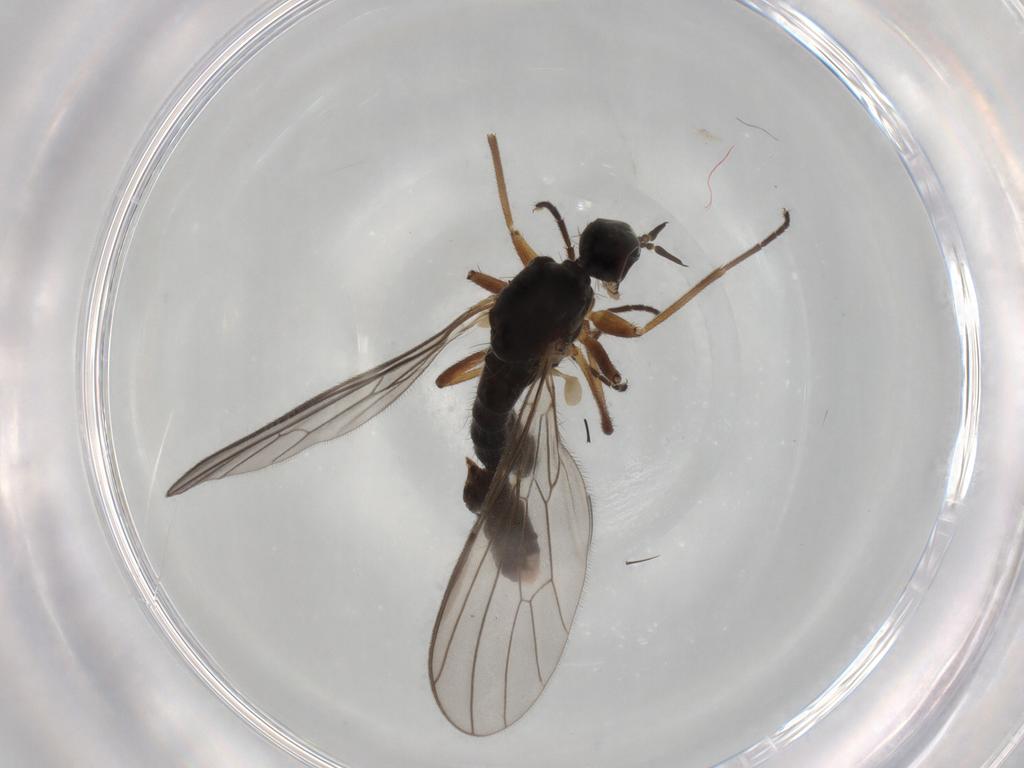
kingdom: Animalia
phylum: Arthropoda
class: Insecta
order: Diptera
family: Empididae
